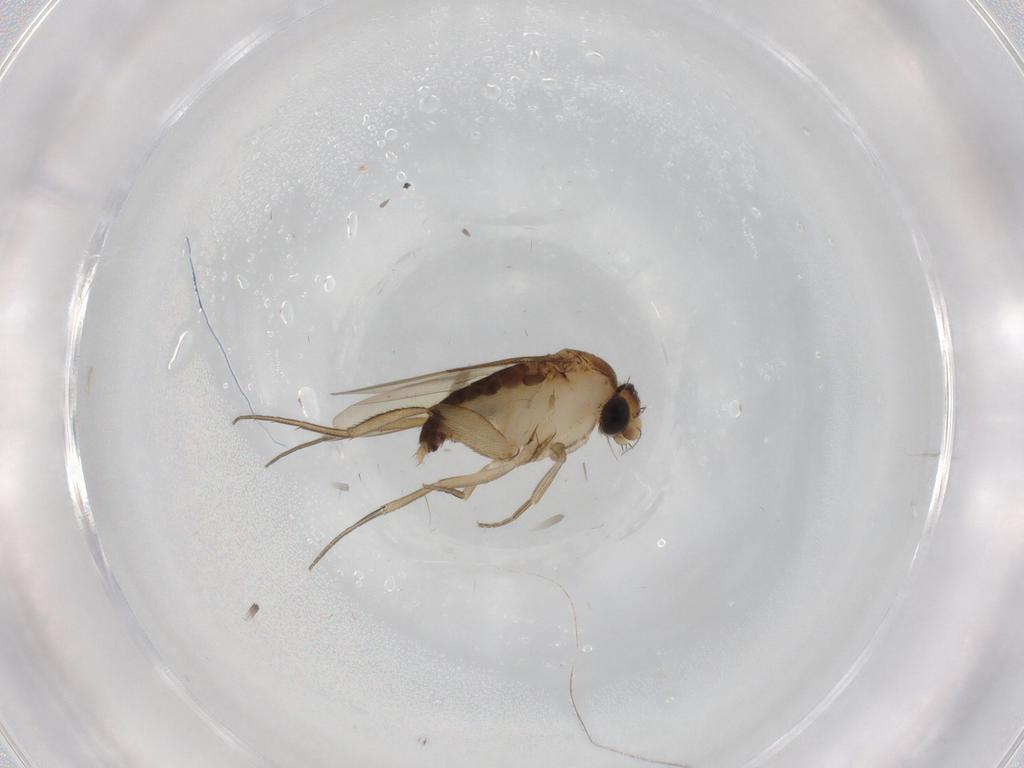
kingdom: Animalia
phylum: Arthropoda
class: Insecta
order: Diptera
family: Phoridae
